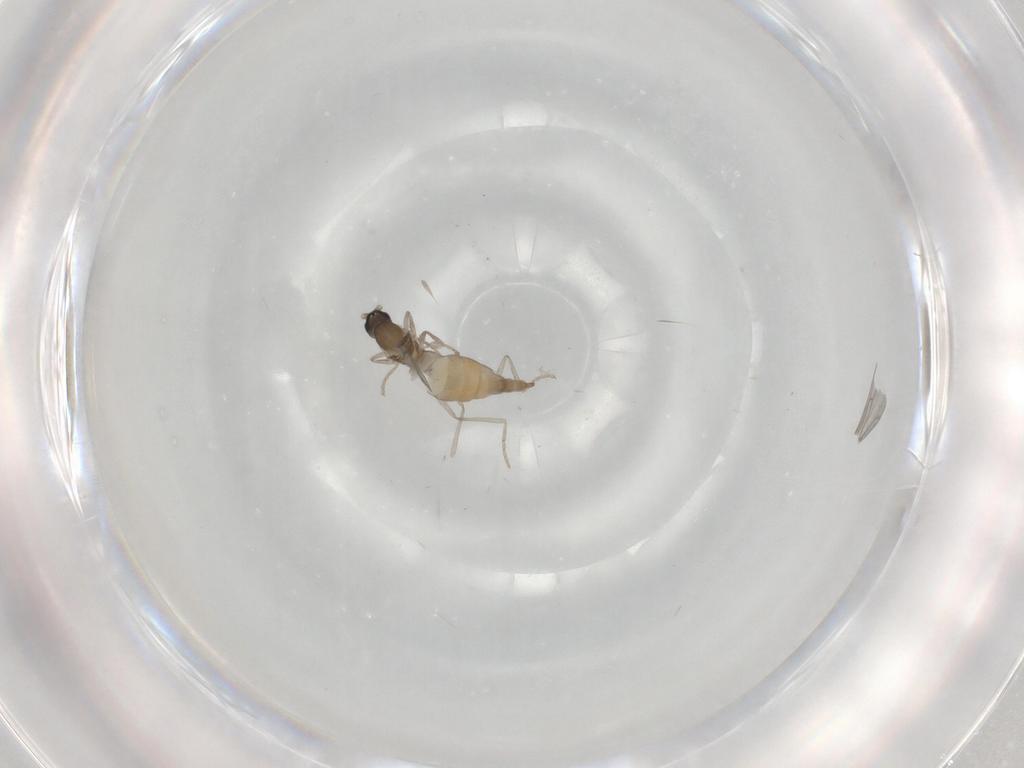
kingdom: Animalia
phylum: Arthropoda
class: Insecta
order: Diptera
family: Cecidomyiidae
